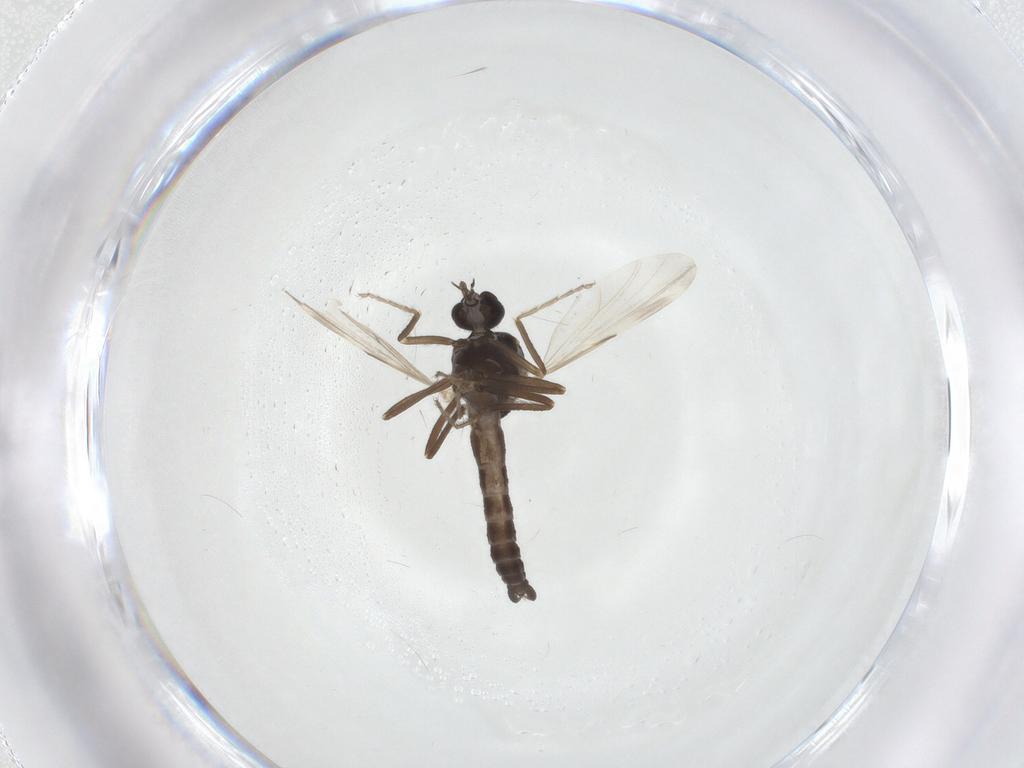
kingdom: Animalia
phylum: Arthropoda
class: Insecta
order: Diptera
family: Ceratopogonidae
